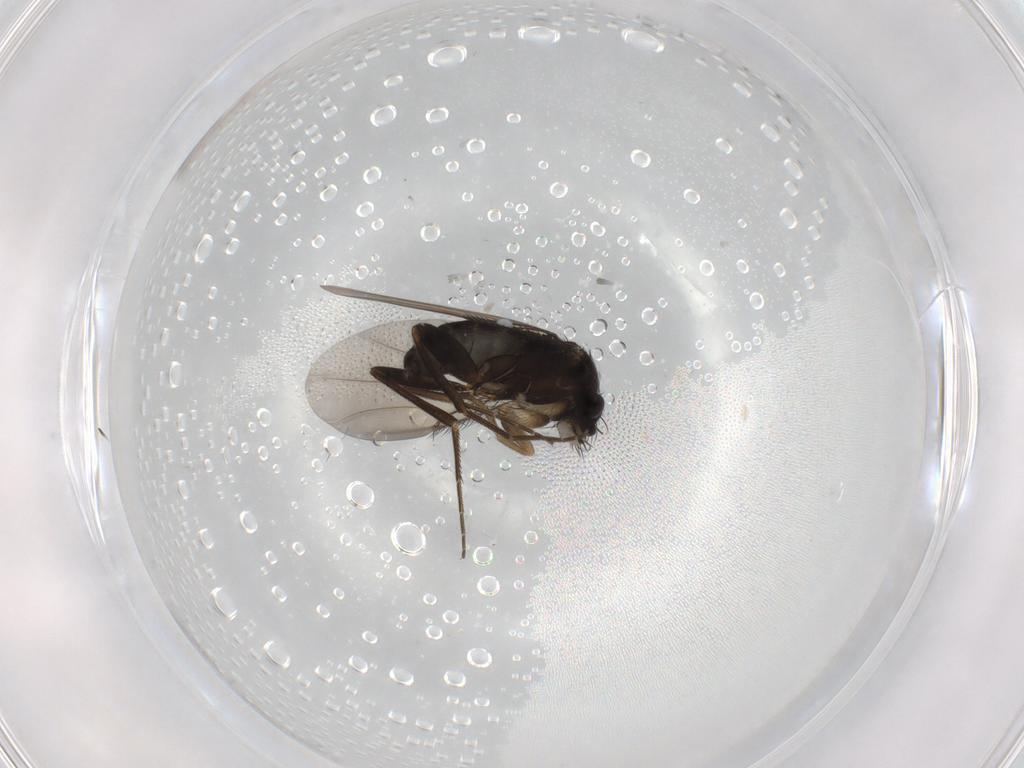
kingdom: Animalia
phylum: Arthropoda
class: Insecta
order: Diptera
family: Phoridae
